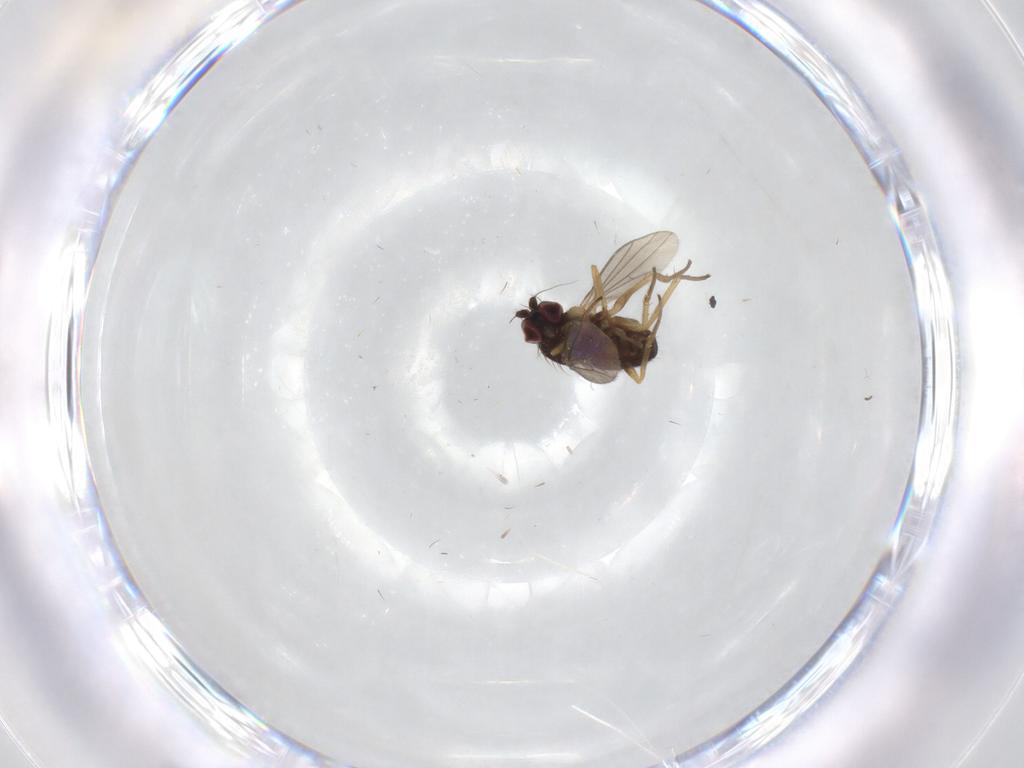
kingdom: Animalia
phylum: Arthropoda
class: Insecta
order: Diptera
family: Dolichopodidae
